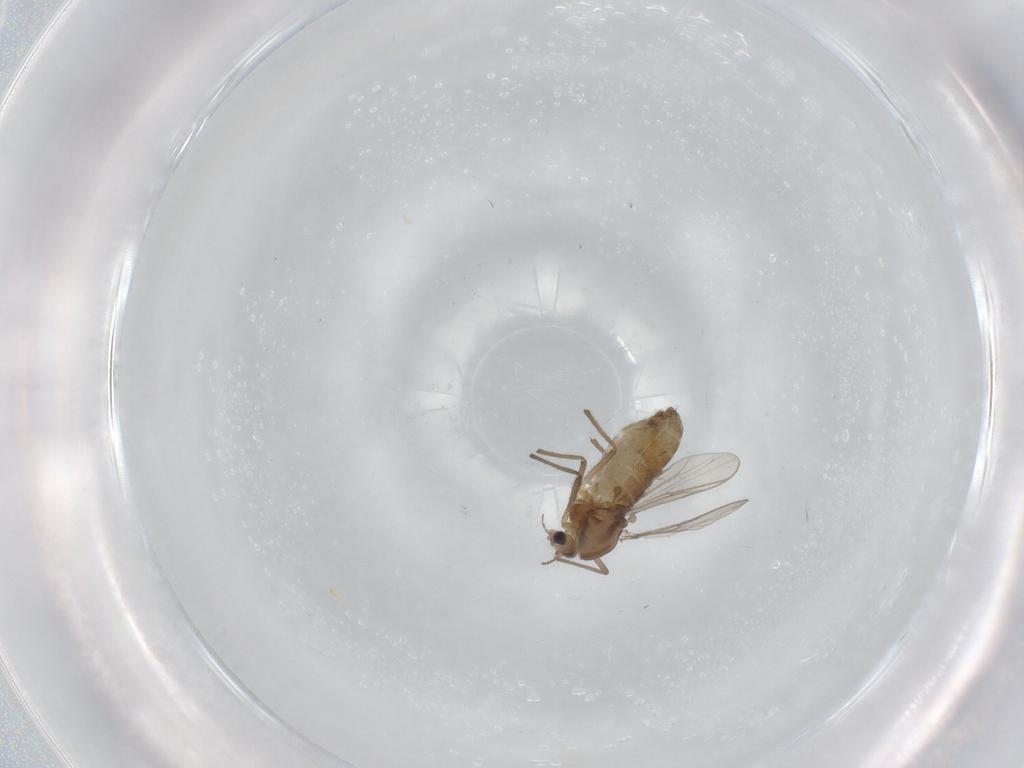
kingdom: Animalia
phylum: Arthropoda
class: Insecta
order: Diptera
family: Chironomidae
